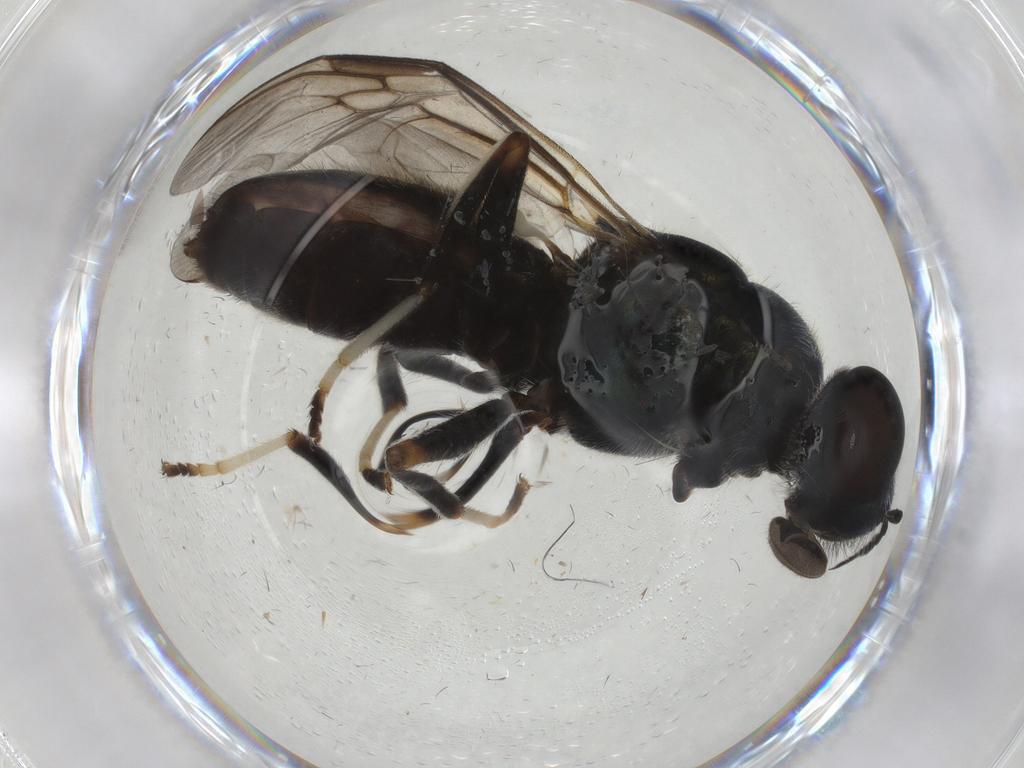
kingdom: Animalia
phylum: Arthropoda
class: Insecta
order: Diptera
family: Dolichopodidae
